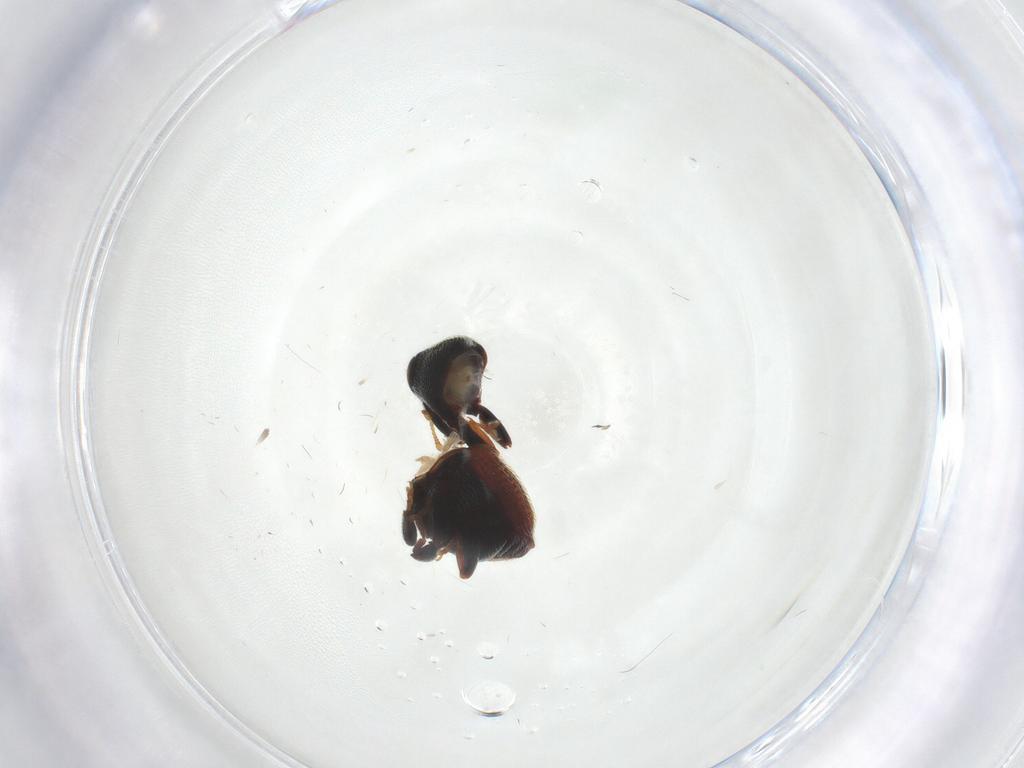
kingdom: Animalia
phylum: Arthropoda
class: Insecta
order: Coleoptera
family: Curculionidae
